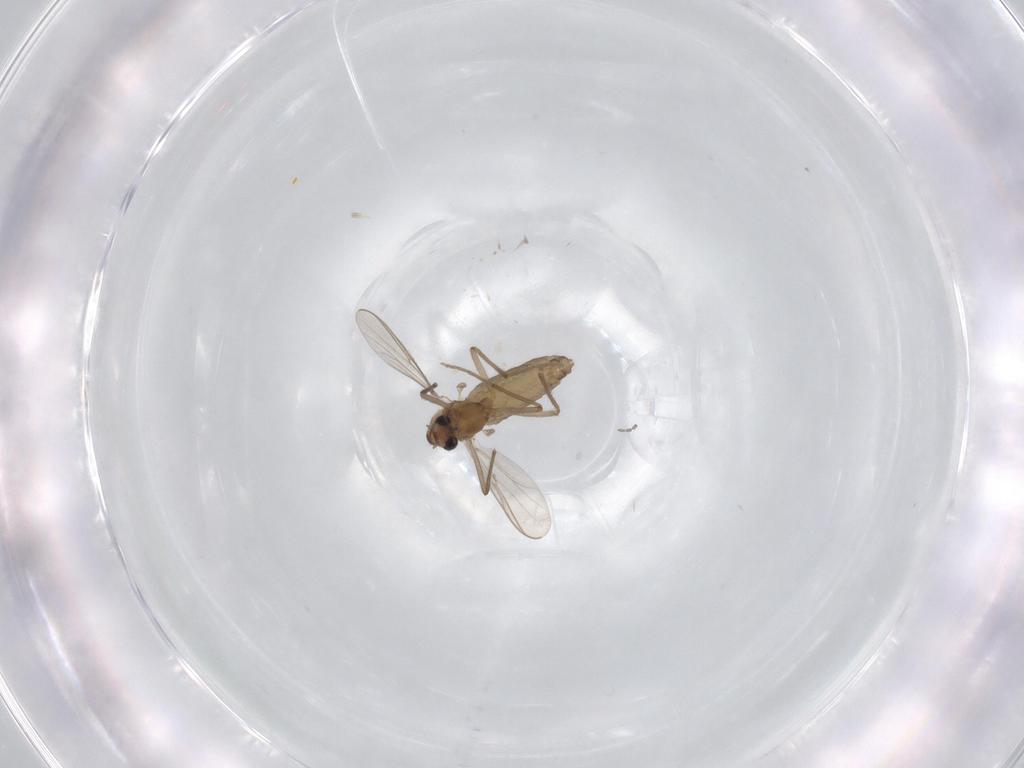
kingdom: Animalia
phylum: Arthropoda
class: Insecta
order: Diptera
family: Chironomidae
